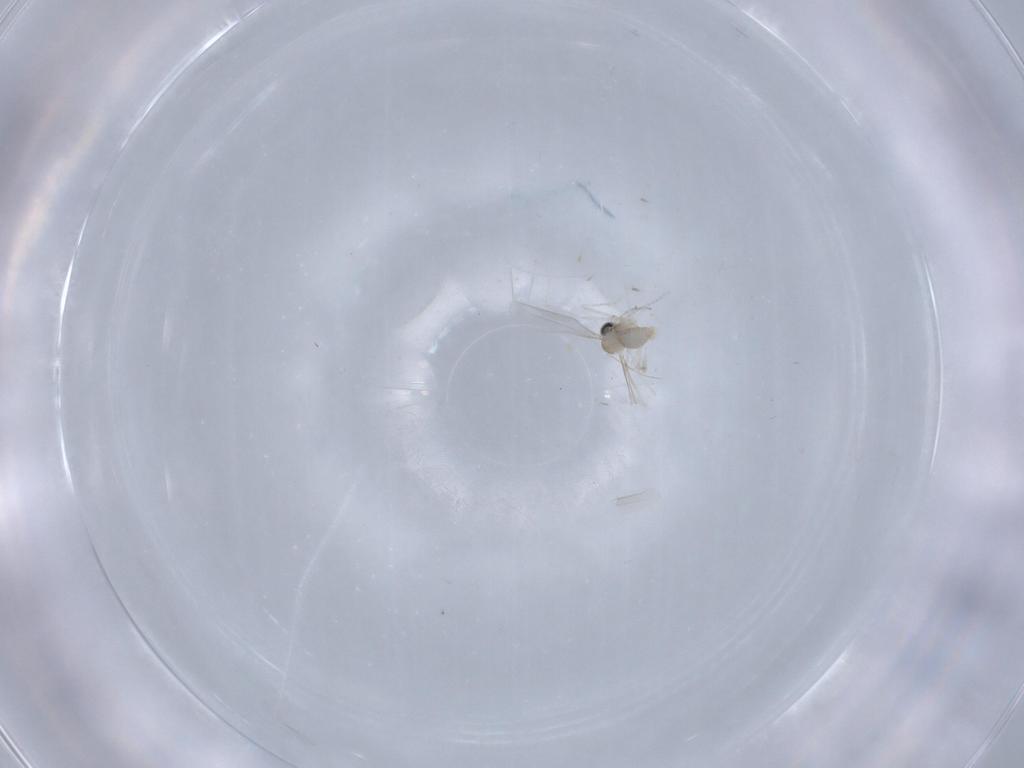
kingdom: Animalia
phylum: Arthropoda
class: Insecta
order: Diptera
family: Cecidomyiidae
